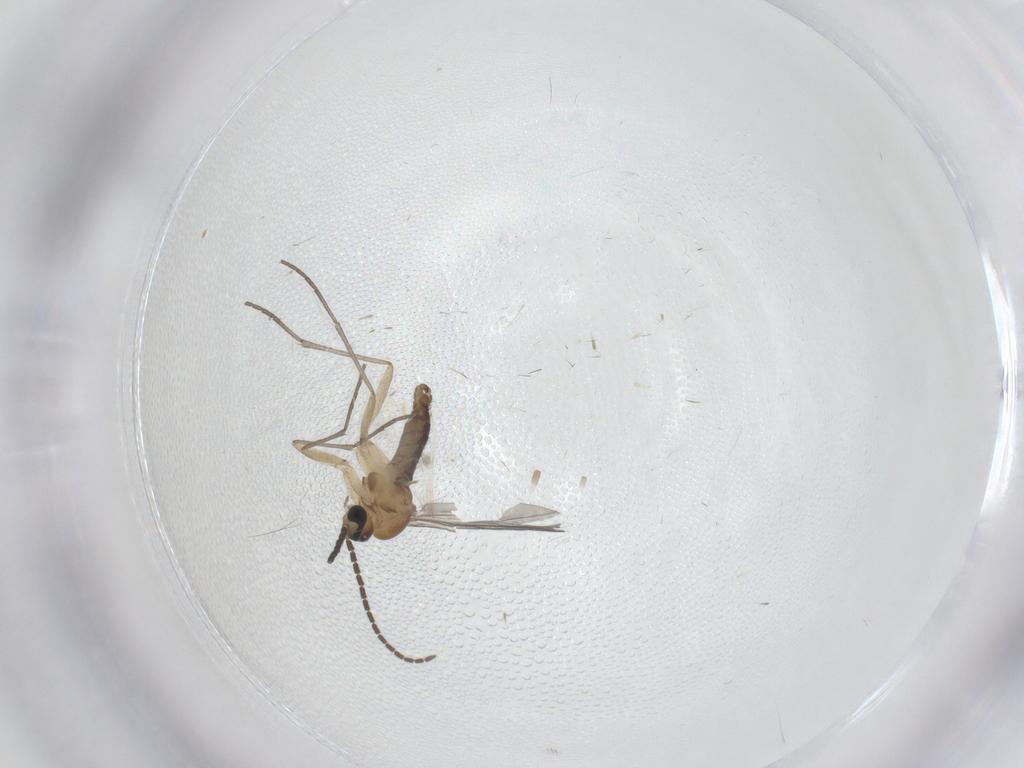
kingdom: Animalia
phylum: Arthropoda
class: Insecta
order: Diptera
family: Sciaridae
